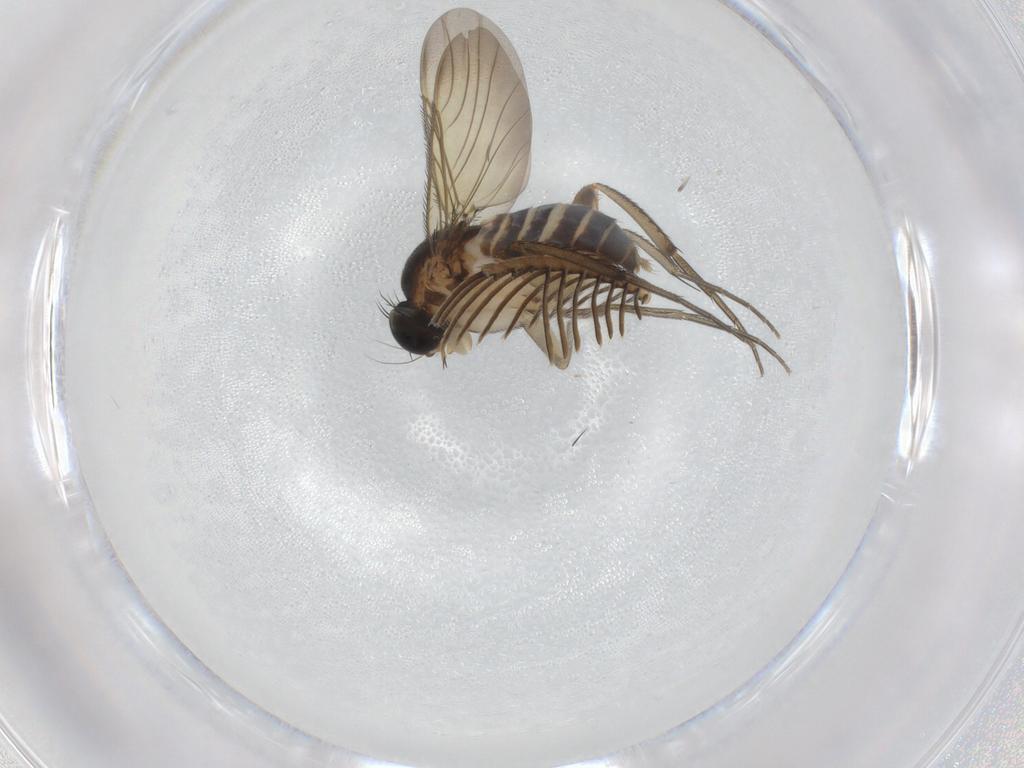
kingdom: Animalia
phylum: Arthropoda
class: Insecta
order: Diptera
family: Phoridae
